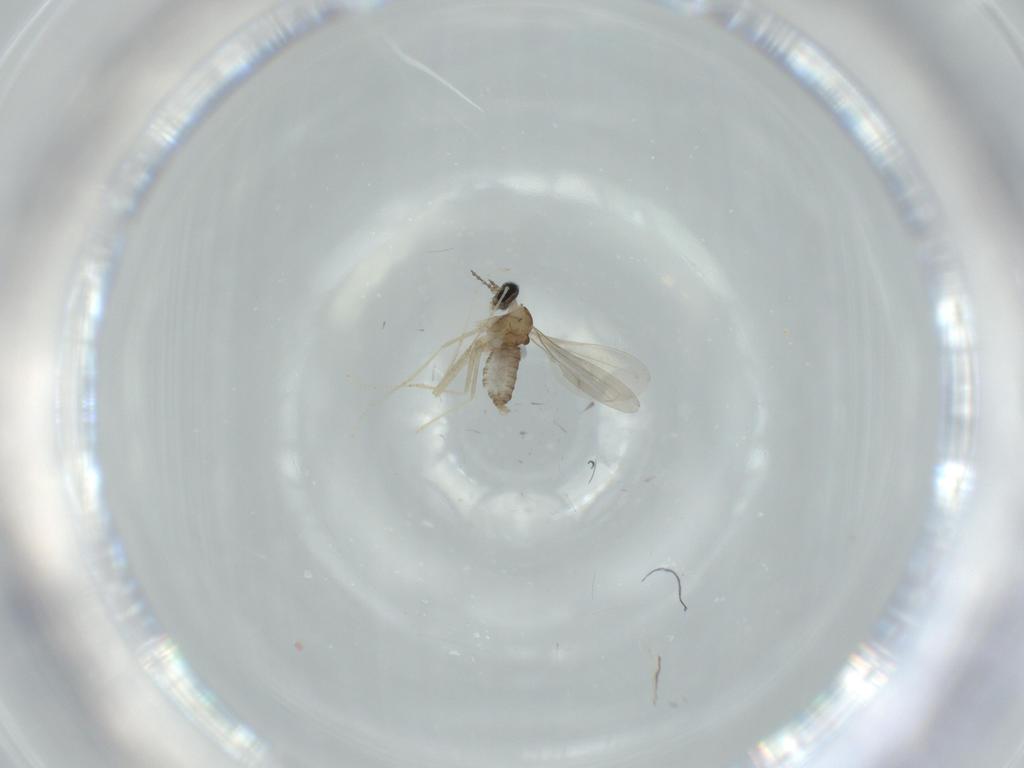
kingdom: Animalia
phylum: Arthropoda
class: Insecta
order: Diptera
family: Cecidomyiidae
